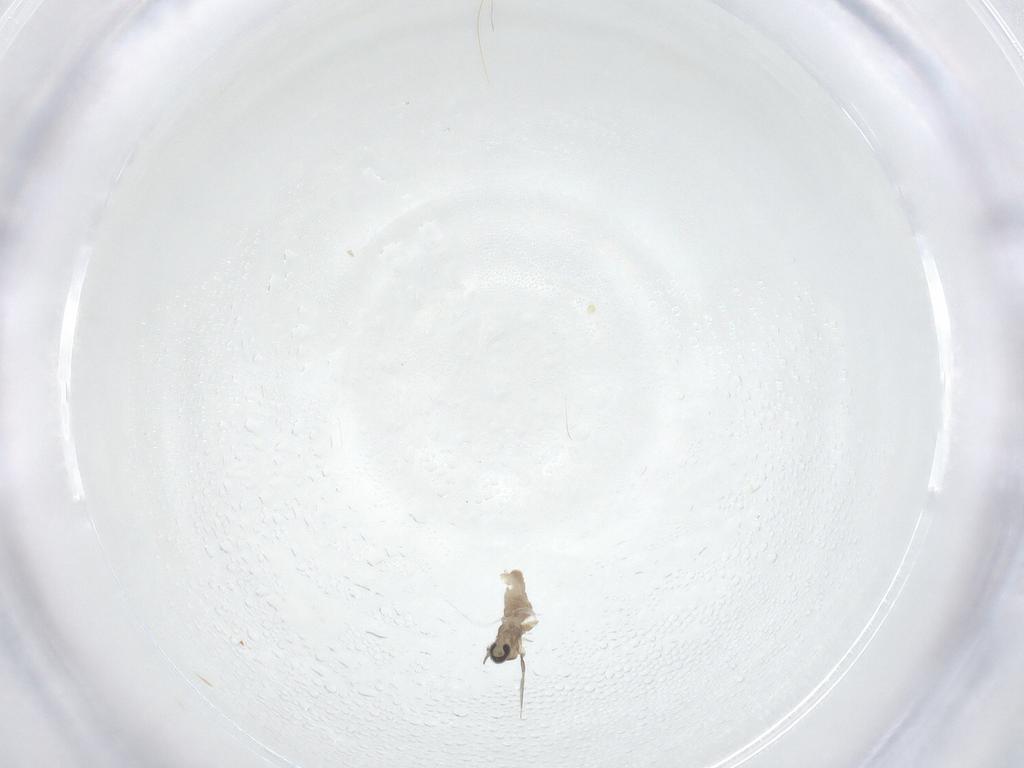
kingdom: Animalia
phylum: Arthropoda
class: Insecta
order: Diptera
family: Cecidomyiidae
